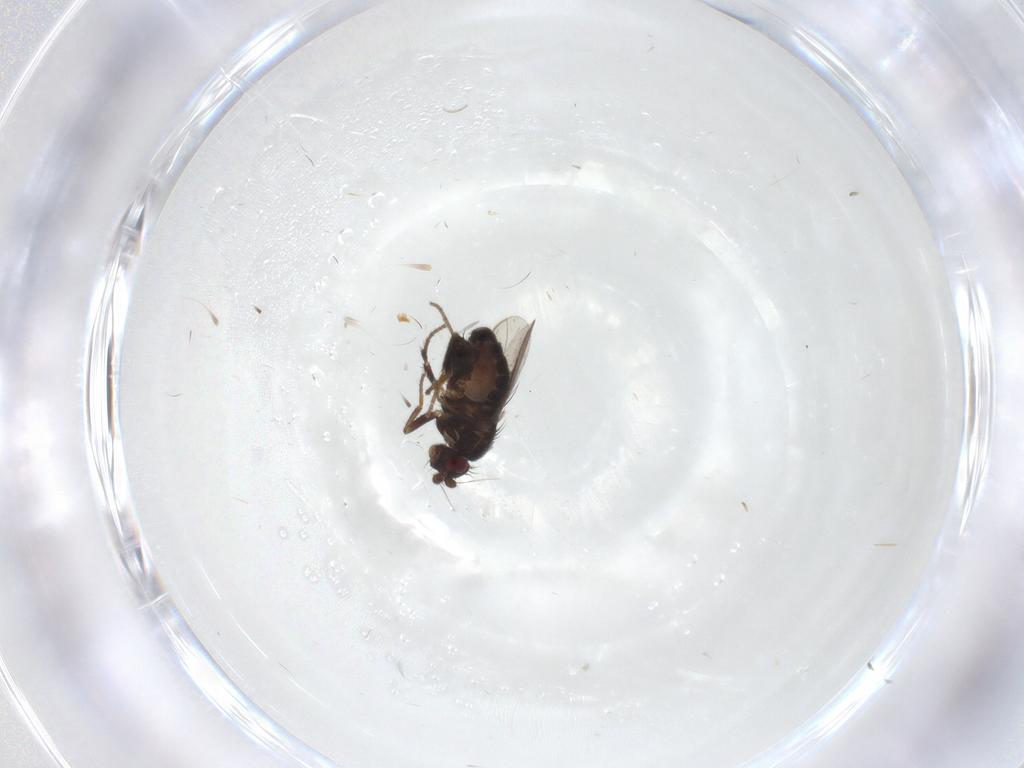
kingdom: Animalia
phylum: Arthropoda
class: Insecta
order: Diptera
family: Sphaeroceridae
